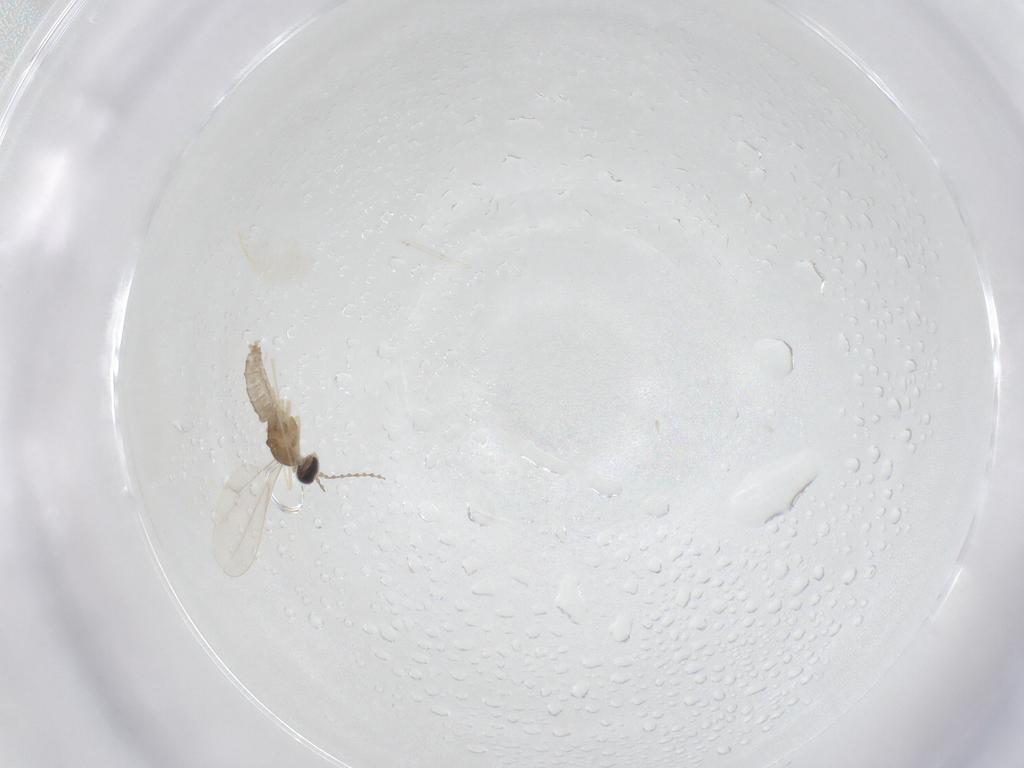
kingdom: Animalia
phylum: Arthropoda
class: Insecta
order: Diptera
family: Cecidomyiidae
